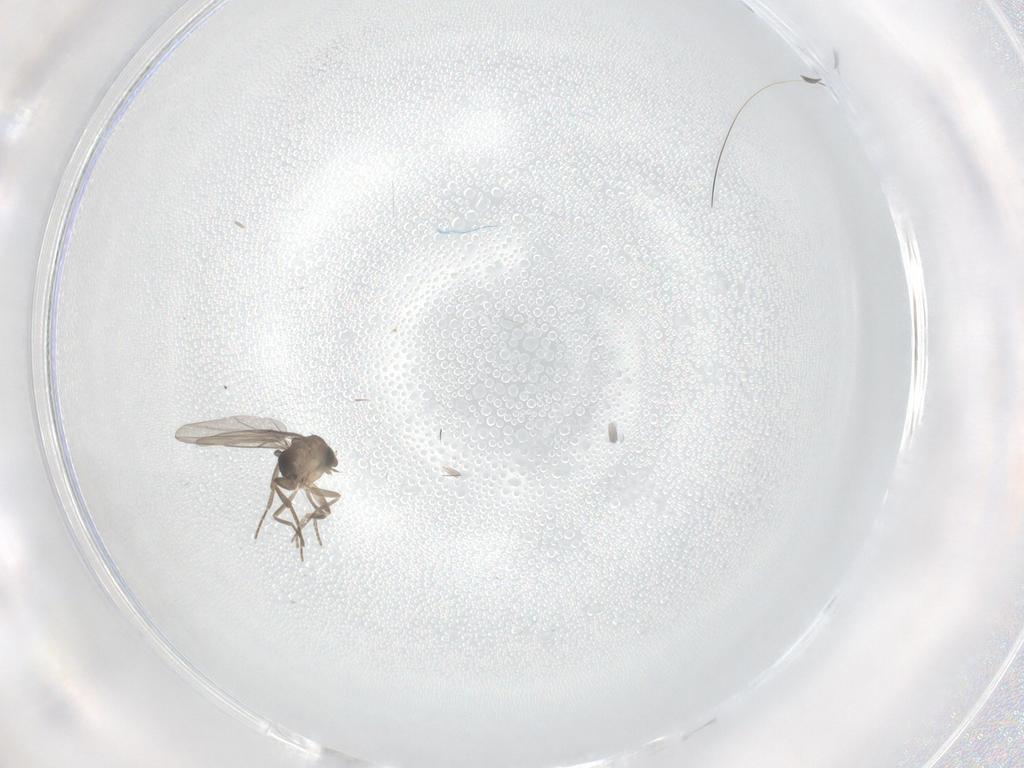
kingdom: Animalia
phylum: Arthropoda
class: Insecta
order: Diptera
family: Phoridae
